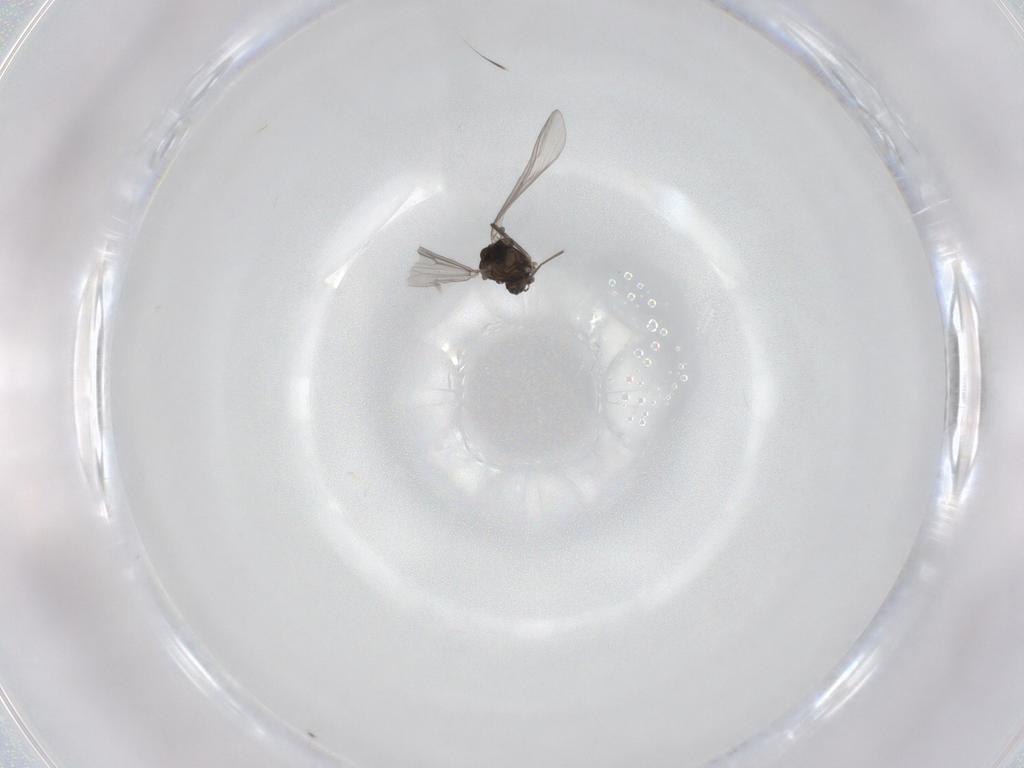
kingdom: Animalia
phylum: Arthropoda
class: Insecta
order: Diptera
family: Chironomidae
